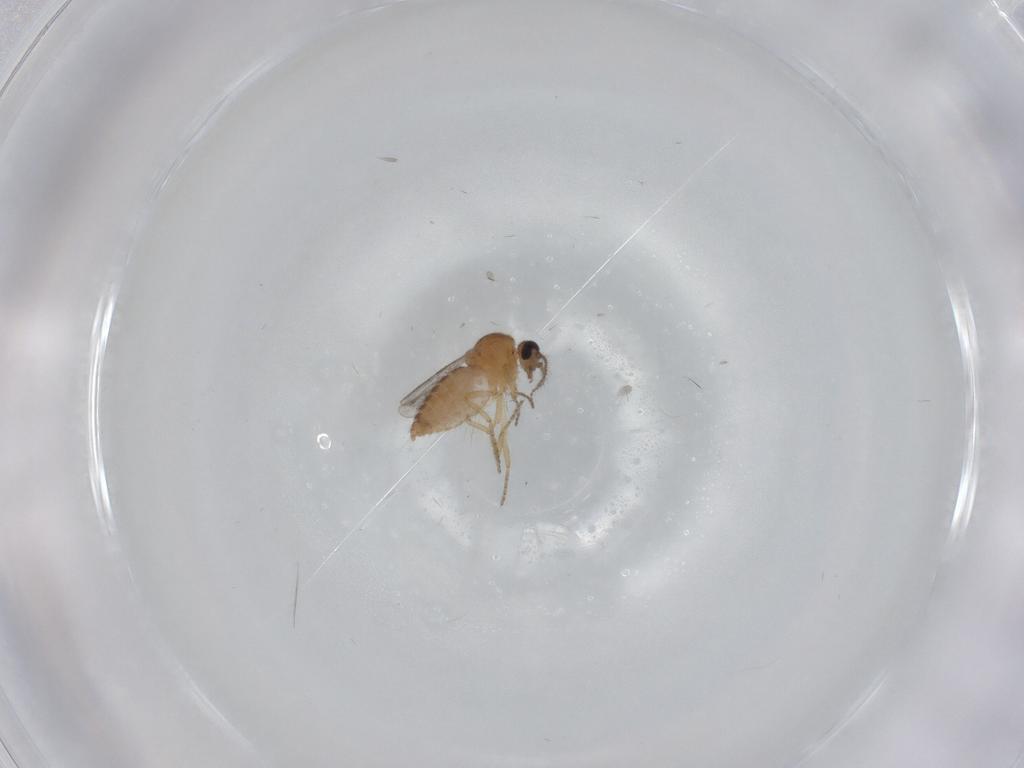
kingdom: Animalia
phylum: Arthropoda
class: Insecta
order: Diptera
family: Ceratopogonidae
